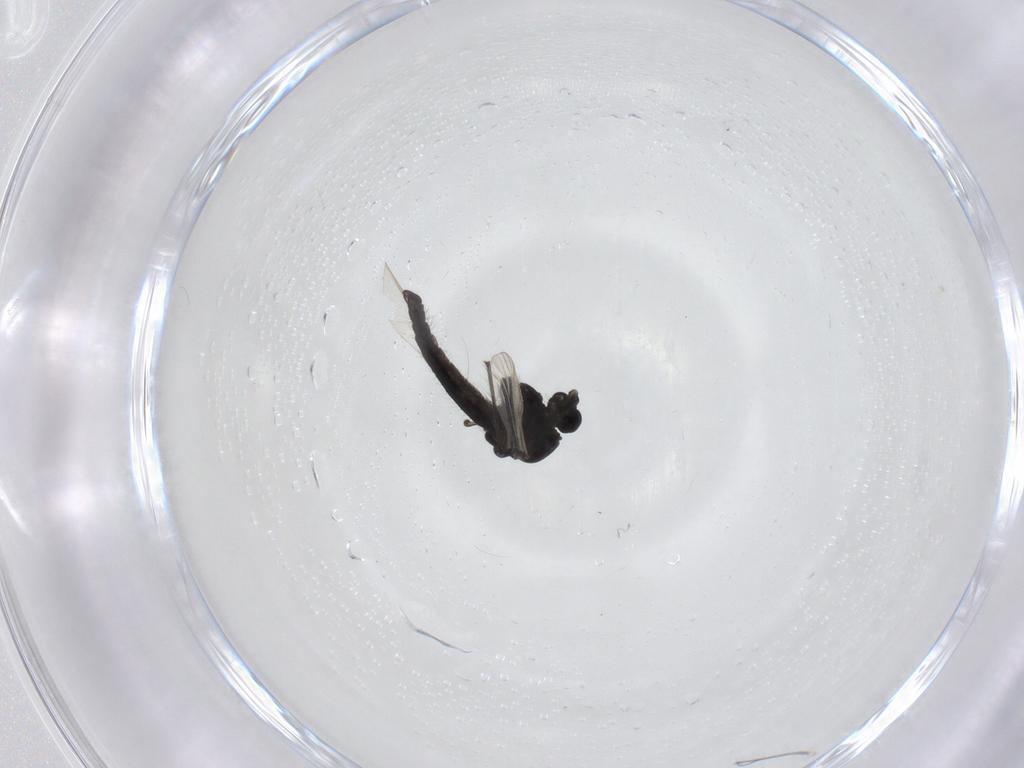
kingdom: Animalia
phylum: Arthropoda
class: Insecta
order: Diptera
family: Chironomidae
